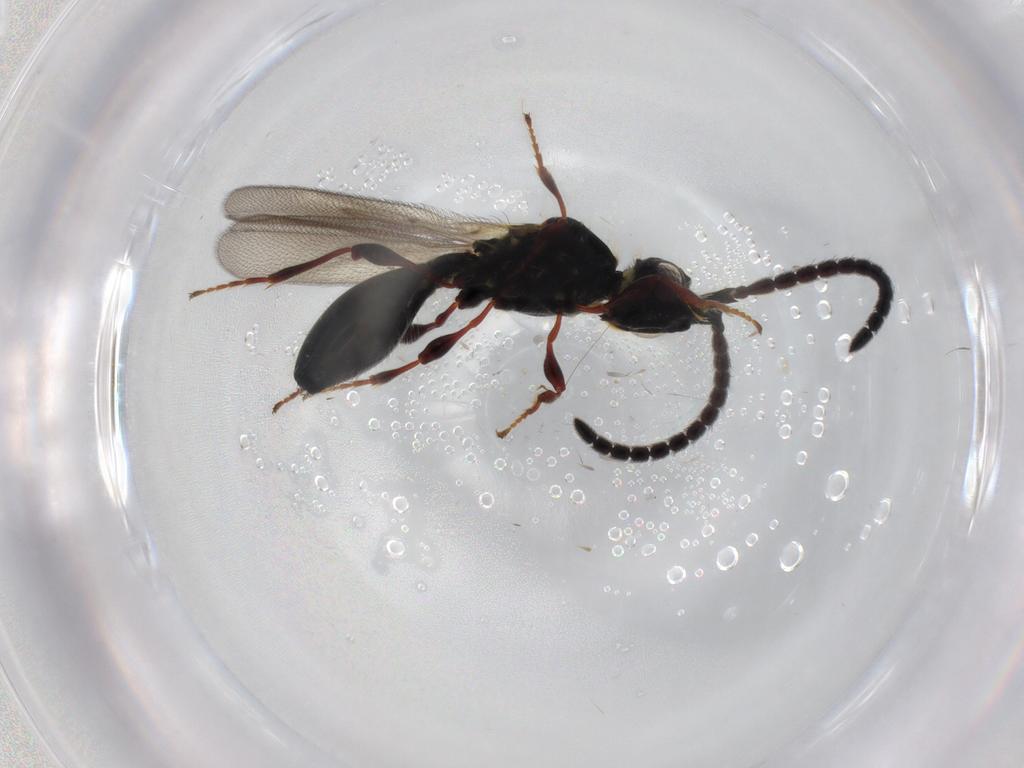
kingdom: Animalia
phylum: Arthropoda
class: Insecta
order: Hymenoptera
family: Diapriidae
